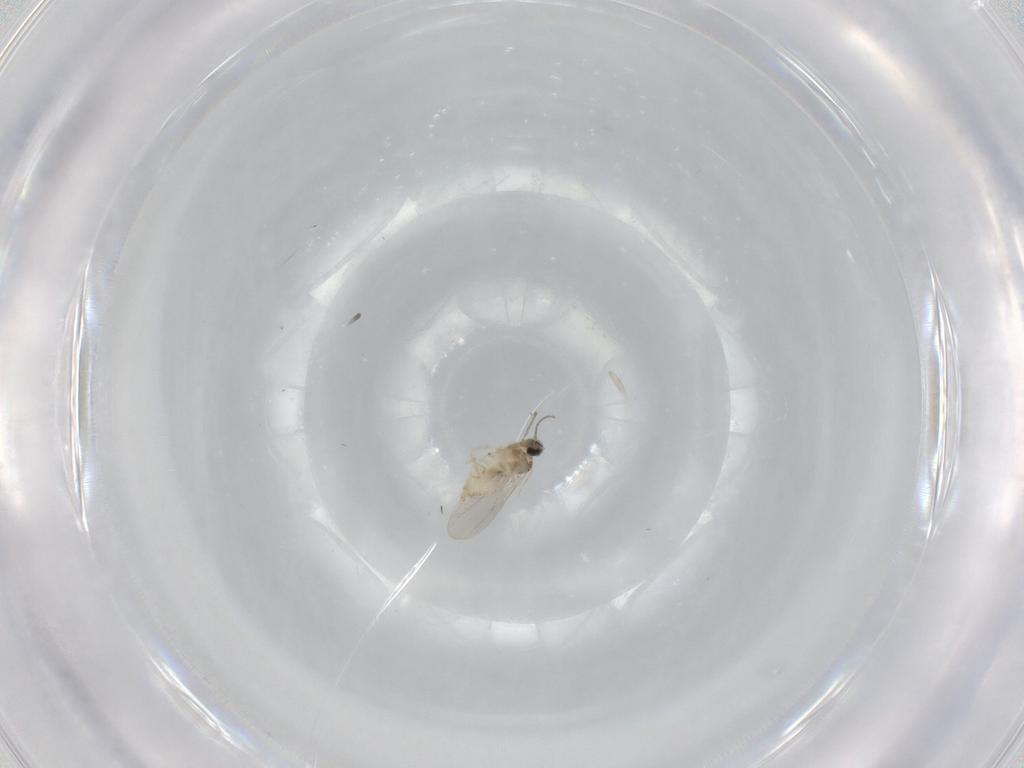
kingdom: Animalia
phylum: Arthropoda
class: Insecta
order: Diptera
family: Cecidomyiidae
